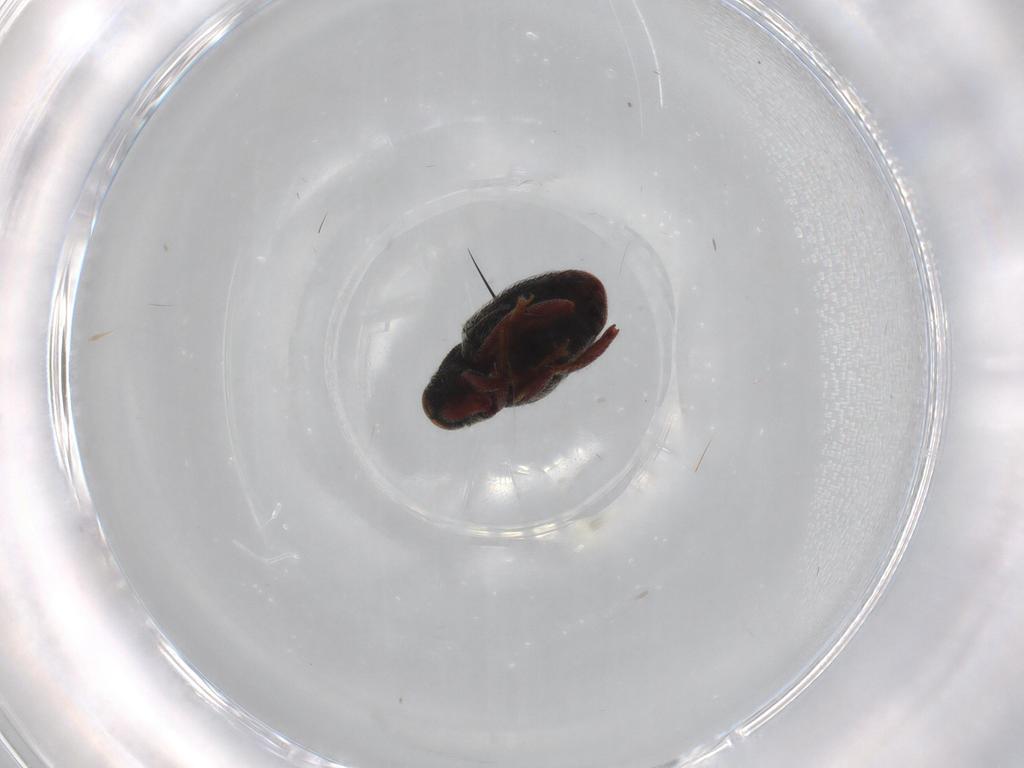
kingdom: Animalia
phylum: Arthropoda
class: Insecta
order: Coleoptera
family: Curculionidae
